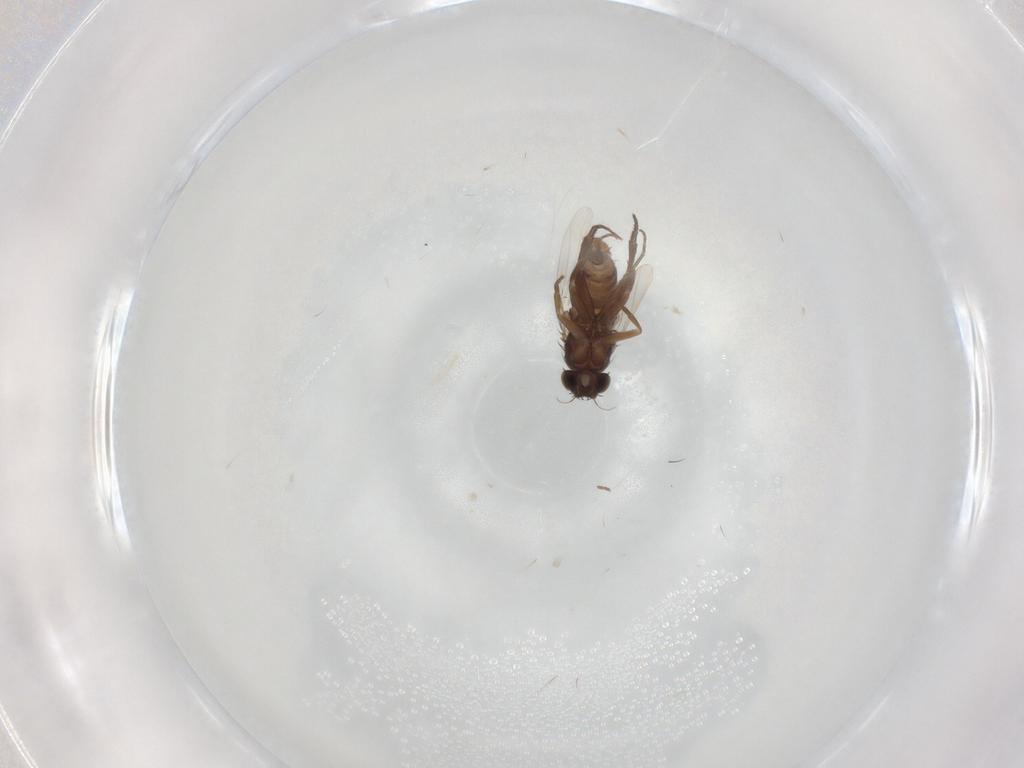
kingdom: Animalia
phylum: Arthropoda
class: Insecta
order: Diptera
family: Phoridae
